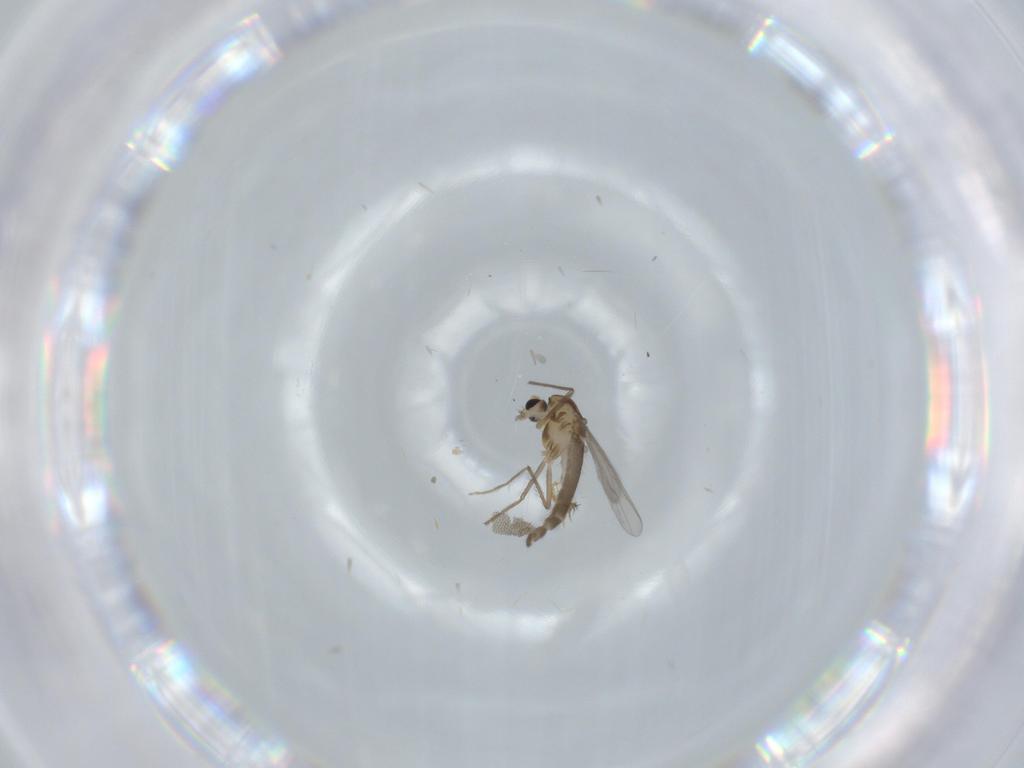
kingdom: Animalia
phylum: Arthropoda
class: Insecta
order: Diptera
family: Chironomidae
